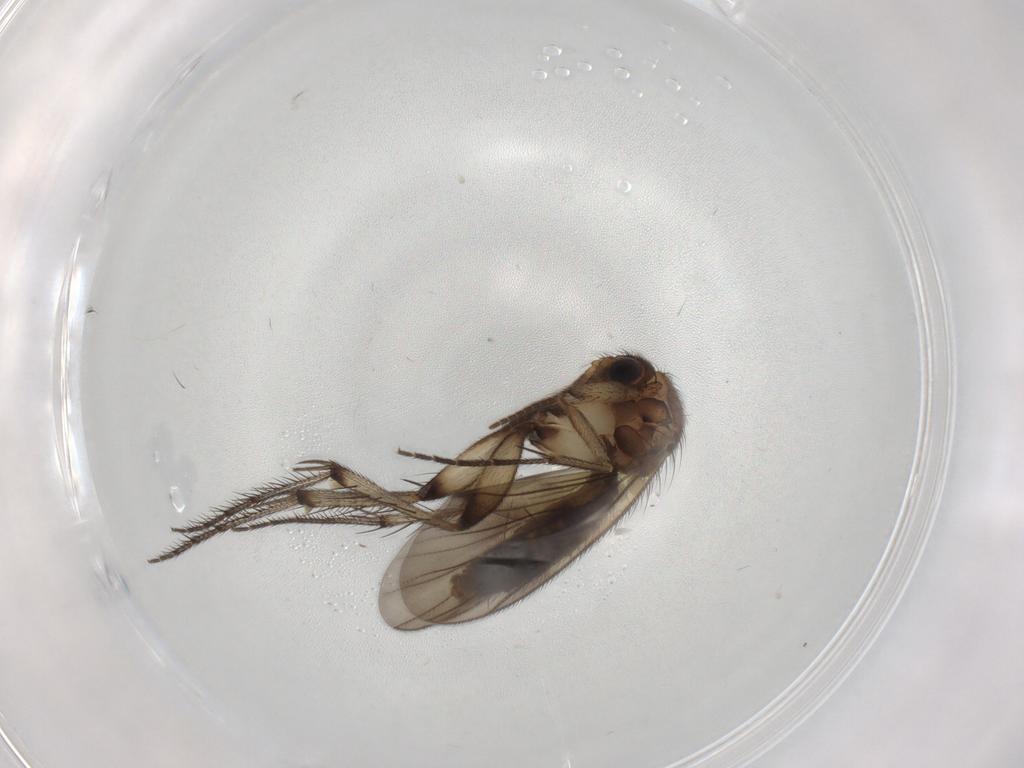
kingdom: Animalia
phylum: Arthropoda
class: Insecta
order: Diptera
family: Mycetophilidae
